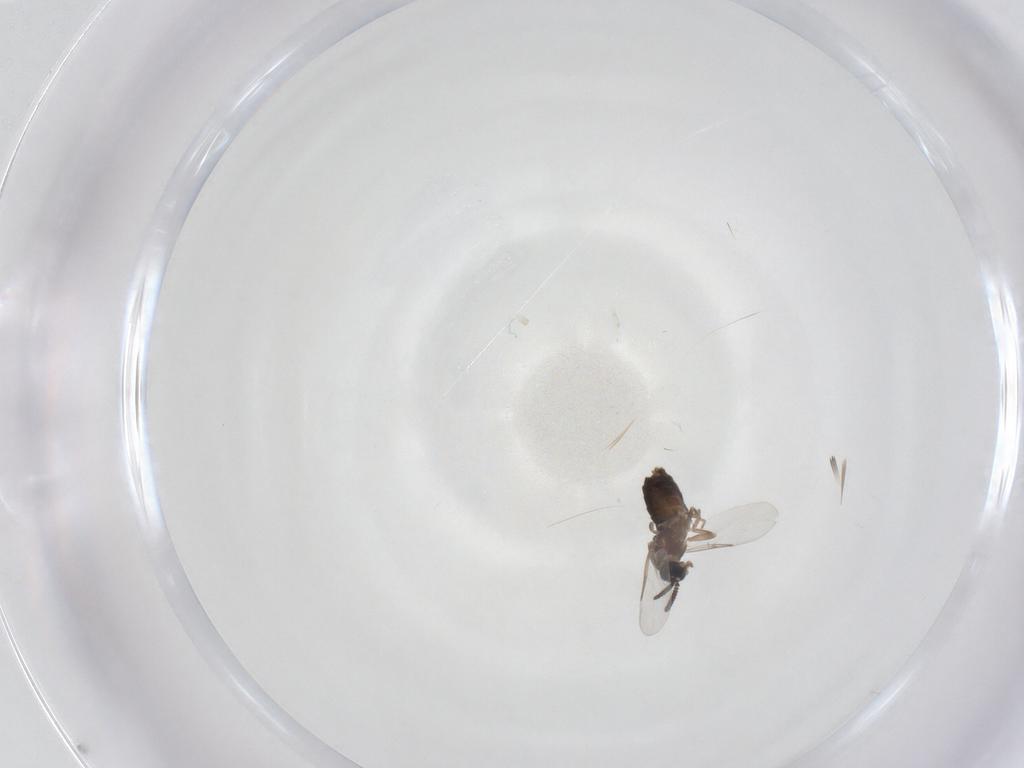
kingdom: Animalia
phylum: Arthropoda
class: Insecta
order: Diptera
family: Scatopsidae
